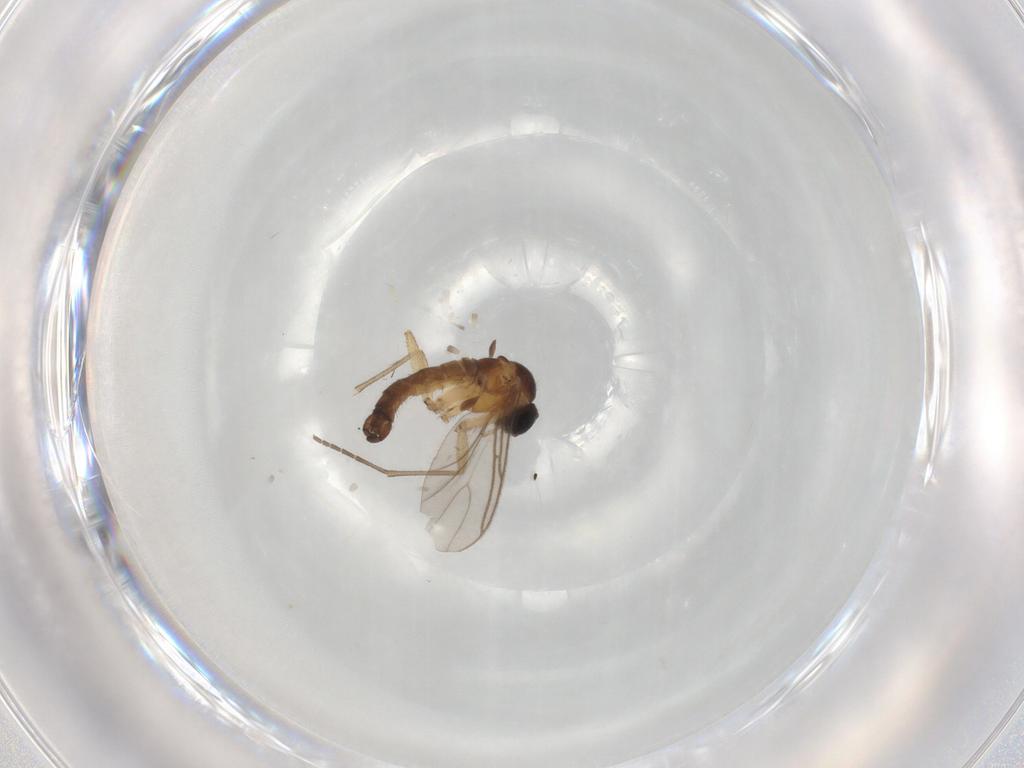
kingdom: Animalia
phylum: Arthropoda
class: Insecta
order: Diptera
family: Sciaridae
